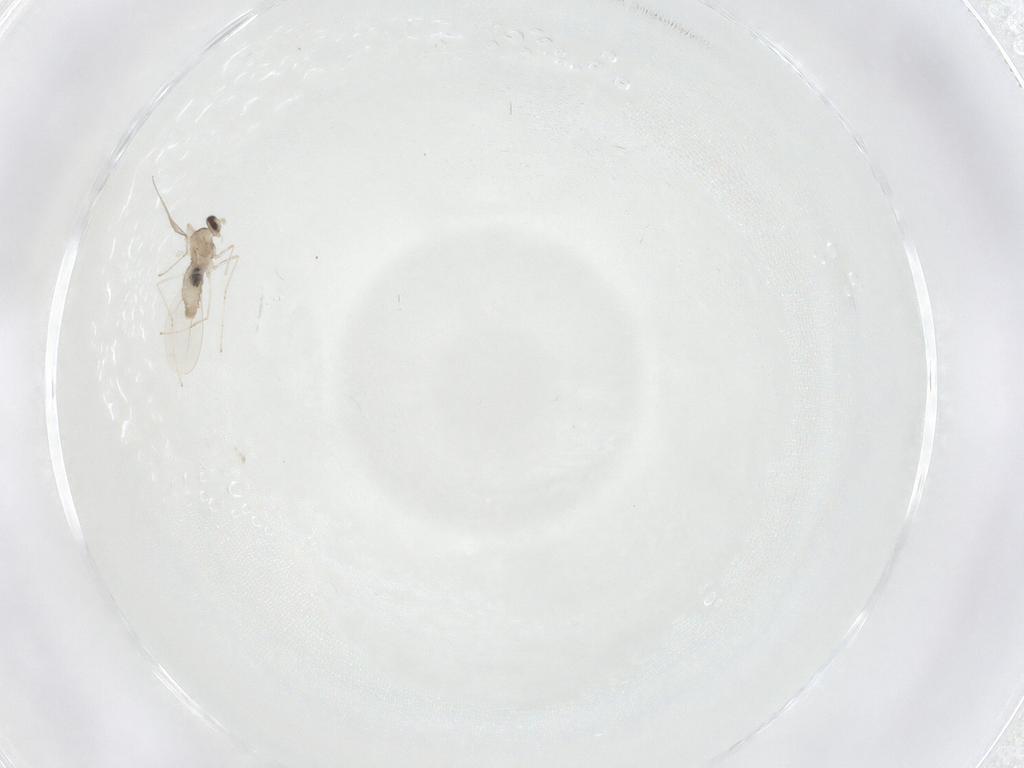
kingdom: Animalia
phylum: Arthropoda
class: Insecta
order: Diptera
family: Cecidomyiidae
